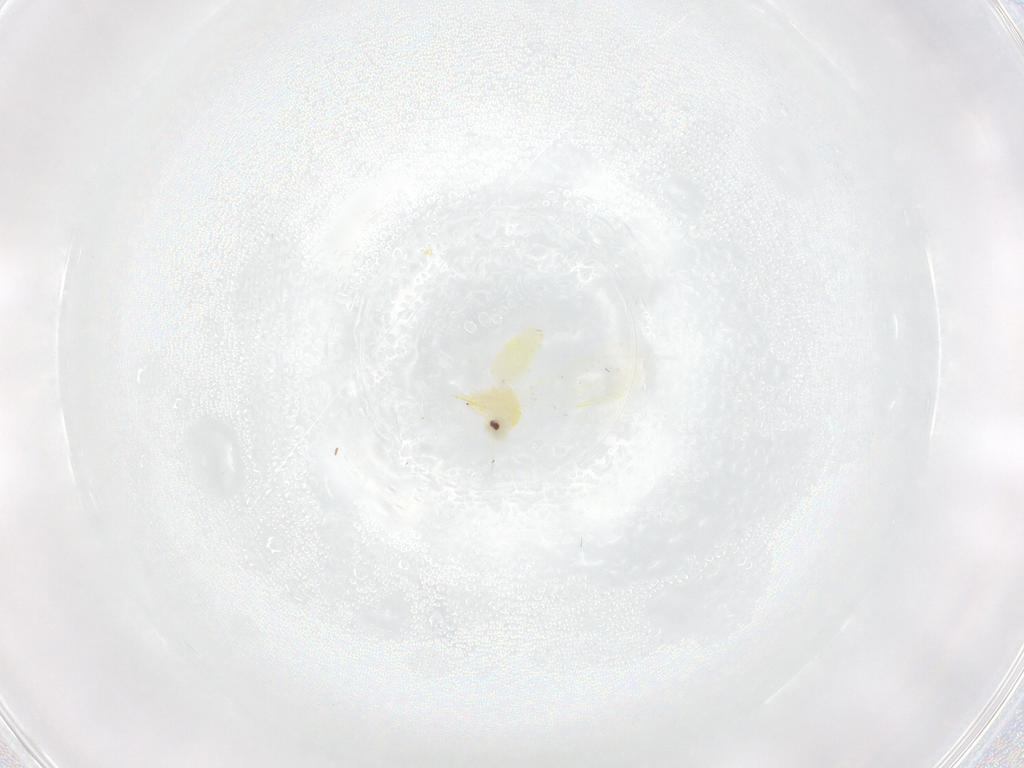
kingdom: Animalia
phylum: Arthropoda
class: Insecta
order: Hemiptera
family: Aleyrodidae
